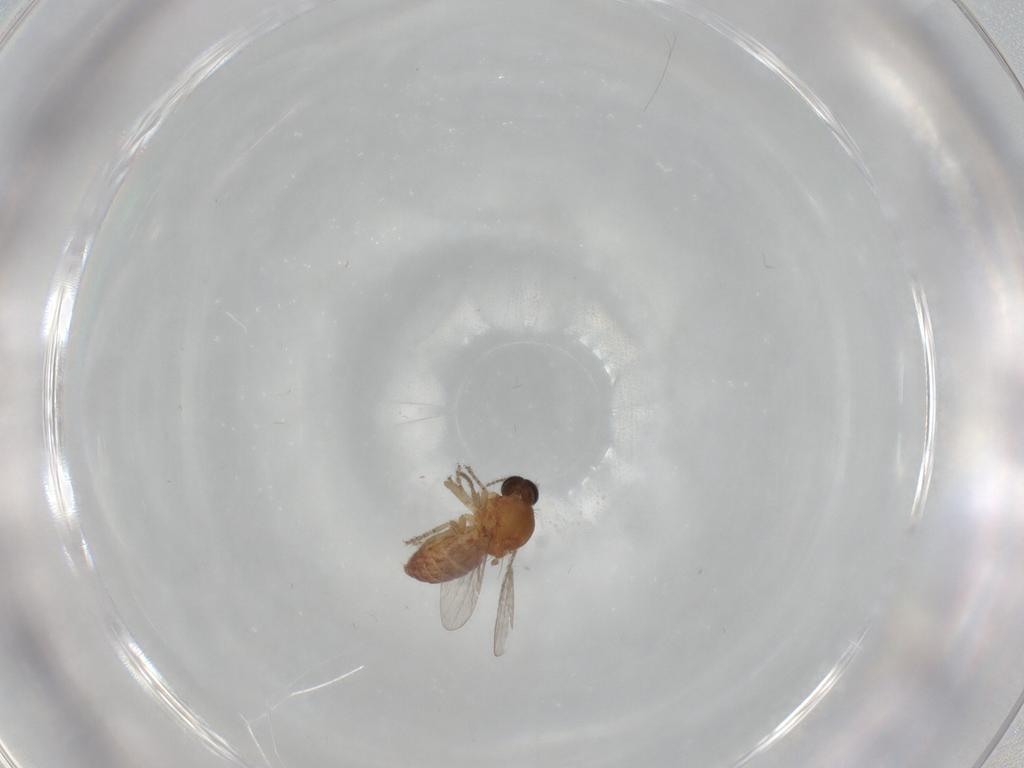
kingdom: Animalia
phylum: Arthropoda
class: Insecta
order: Diptera
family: Ceratopogonidae
